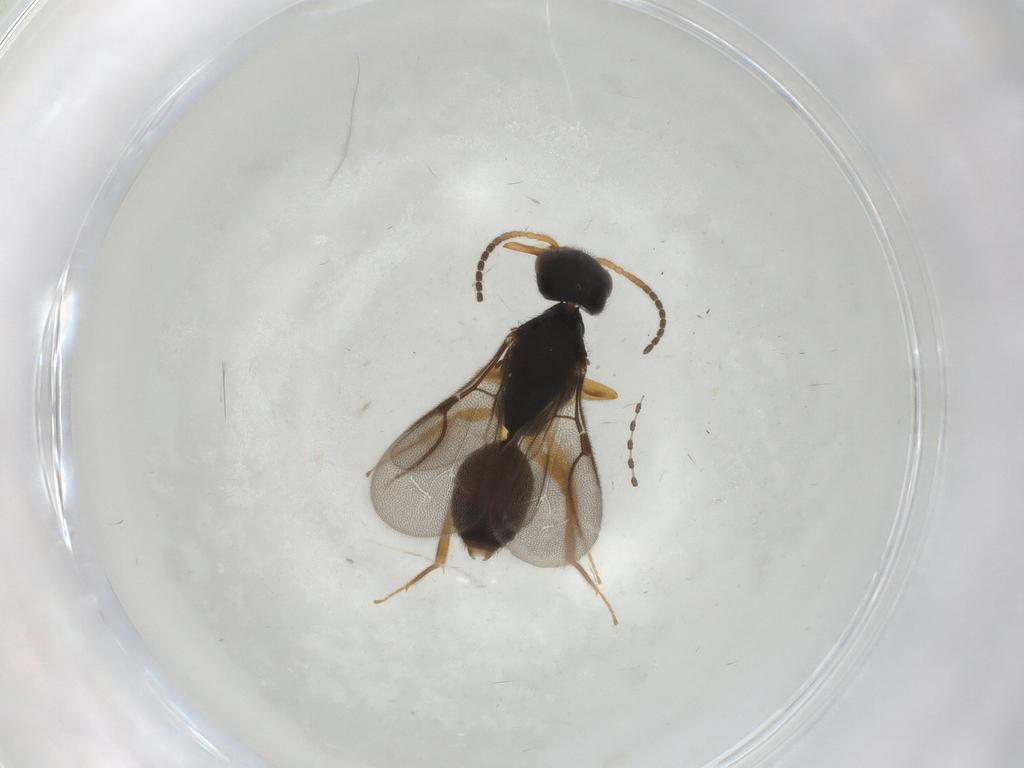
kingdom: Animalia
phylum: Arthropoda
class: Insecta
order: Hymenoptera
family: Bethylidae
